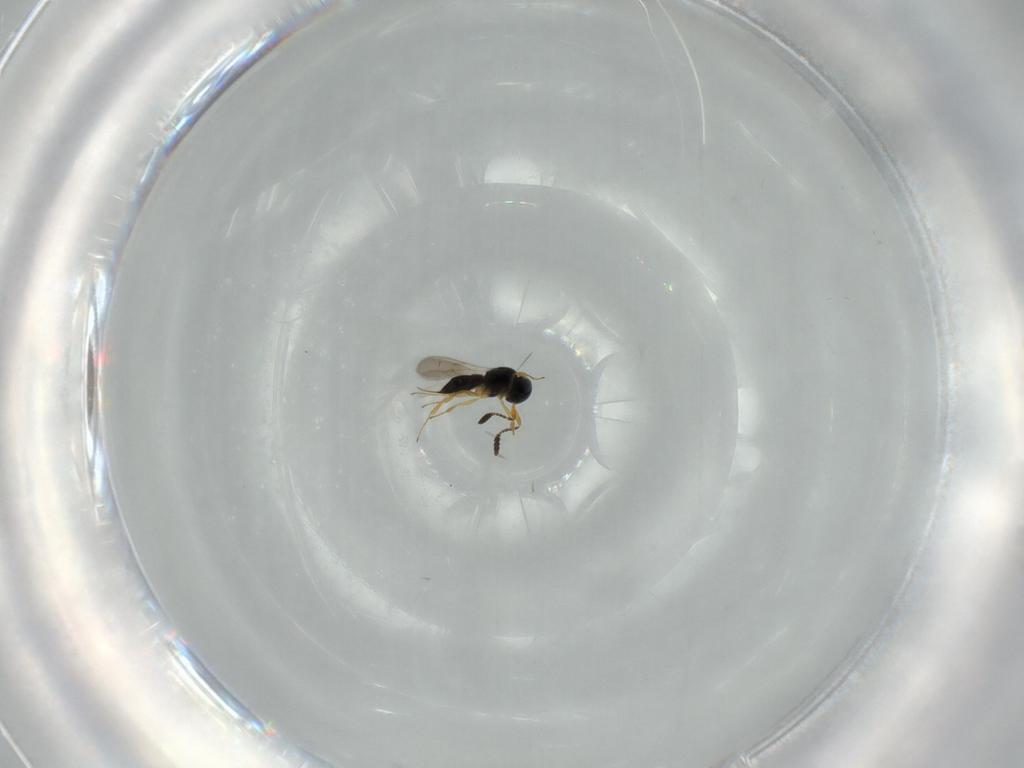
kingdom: Animalia
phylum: Arthropoda
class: Insecta
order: Hymenoptera
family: Scelionidae
